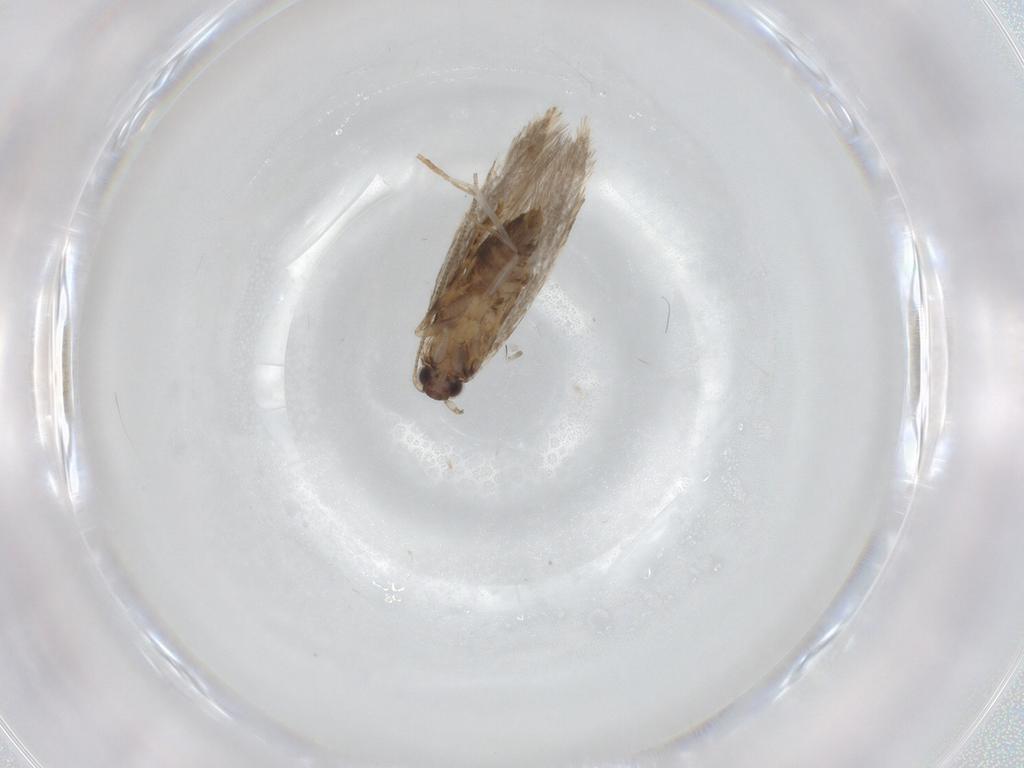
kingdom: Animalia
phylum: Arthropoda
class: Insecta
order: Lepidoptera
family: Tineidae
